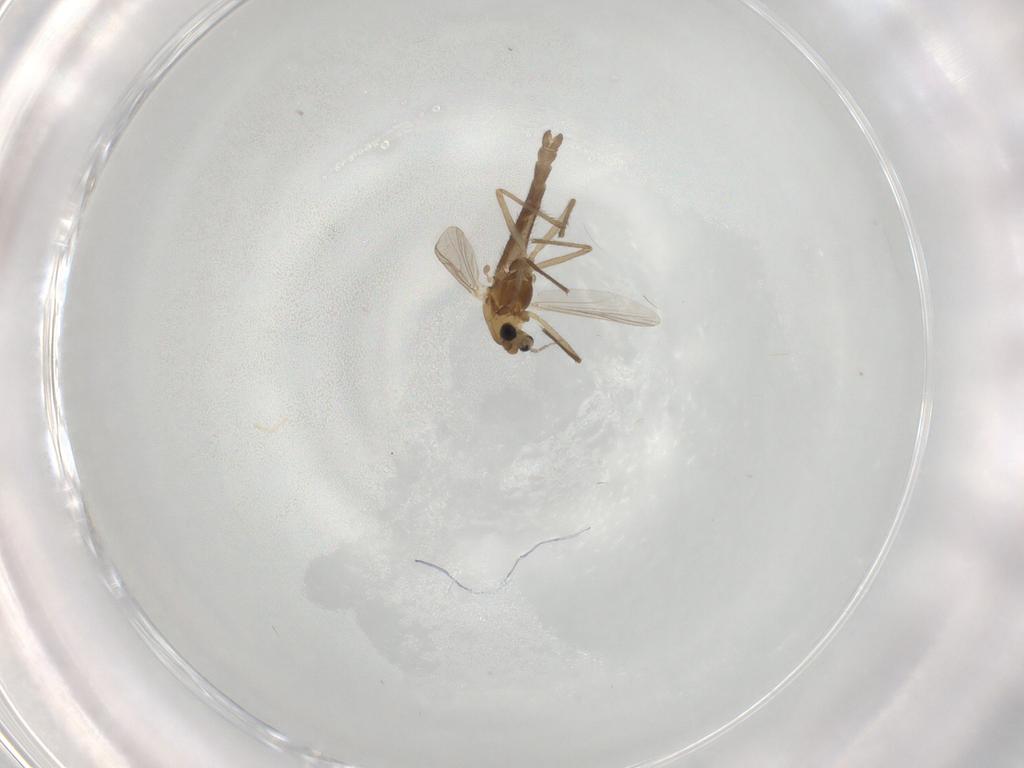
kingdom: Animalia
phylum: Arthropoda
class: Insecta
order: Diptera
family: Chironomidae
